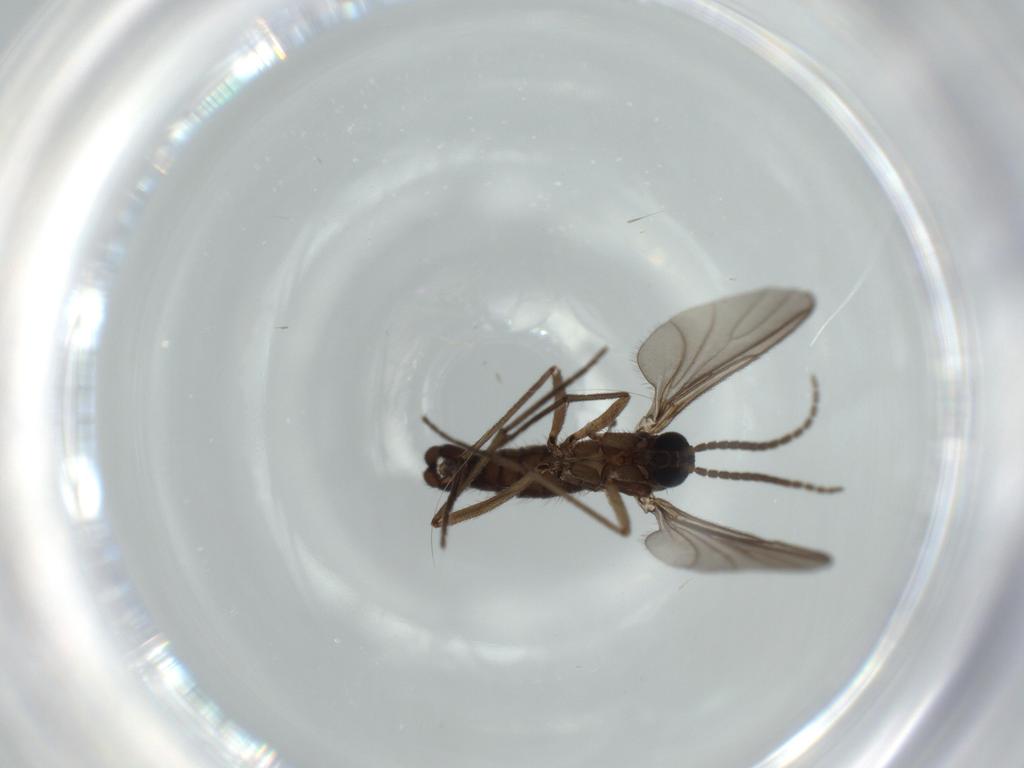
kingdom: Animalia
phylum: Arthropoda
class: Insecta
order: Diptera
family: Sciaridae
